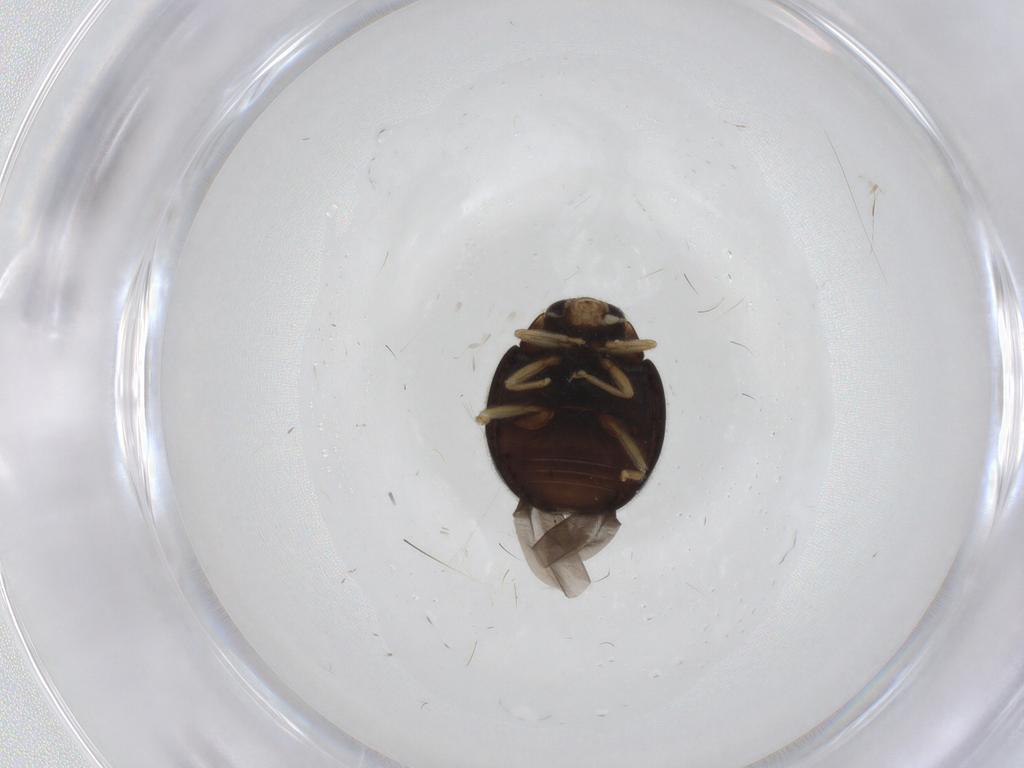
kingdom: Animalia
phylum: Arthropoda
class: Insecta
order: Coleoptera
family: Coccinellidae
